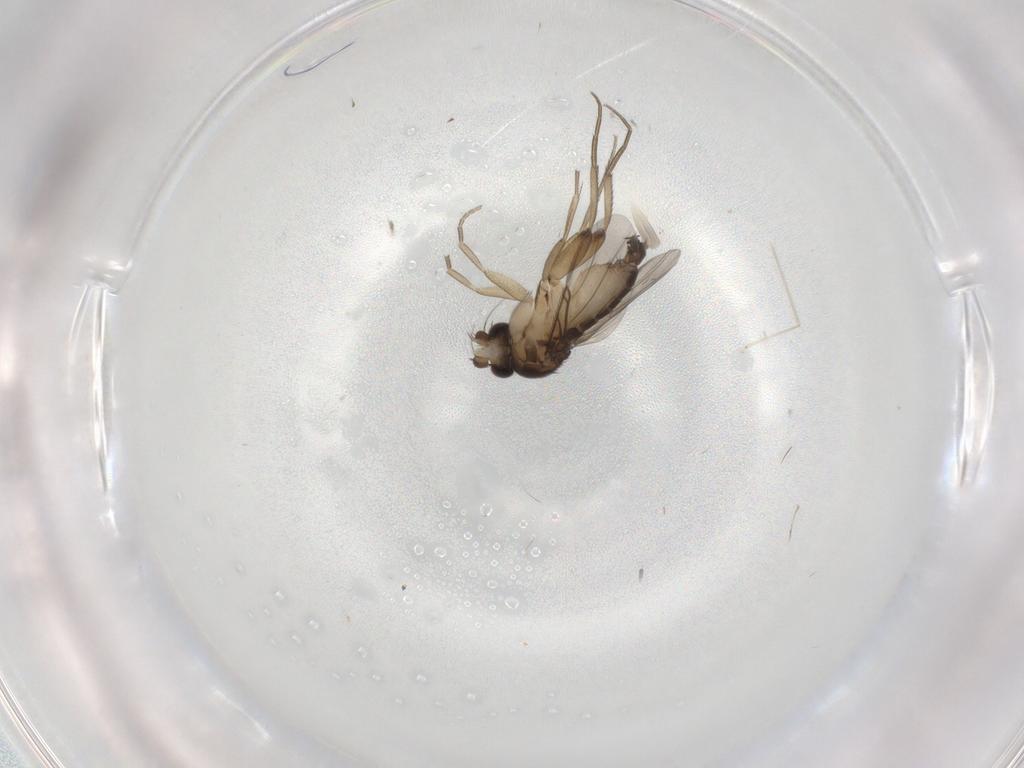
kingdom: Animalia
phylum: Arthropoda
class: Insecta
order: Diptera
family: Phoridae
